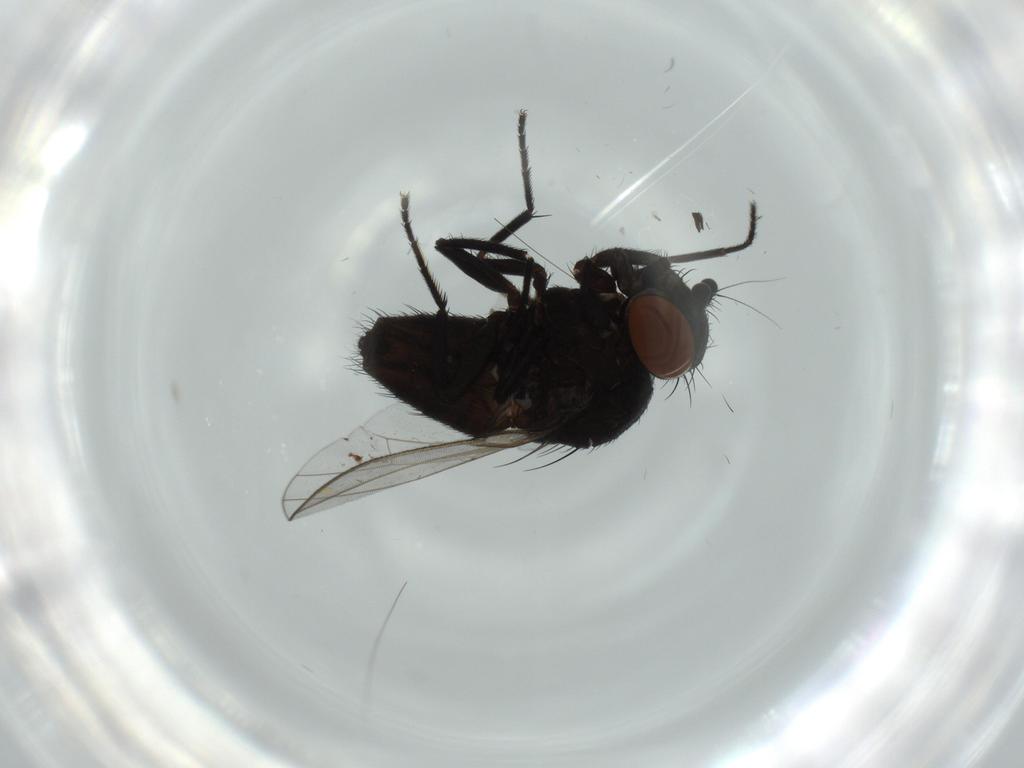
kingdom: Animalia
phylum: Arthropoda
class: Insecta
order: Diptera
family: Milichiidae
